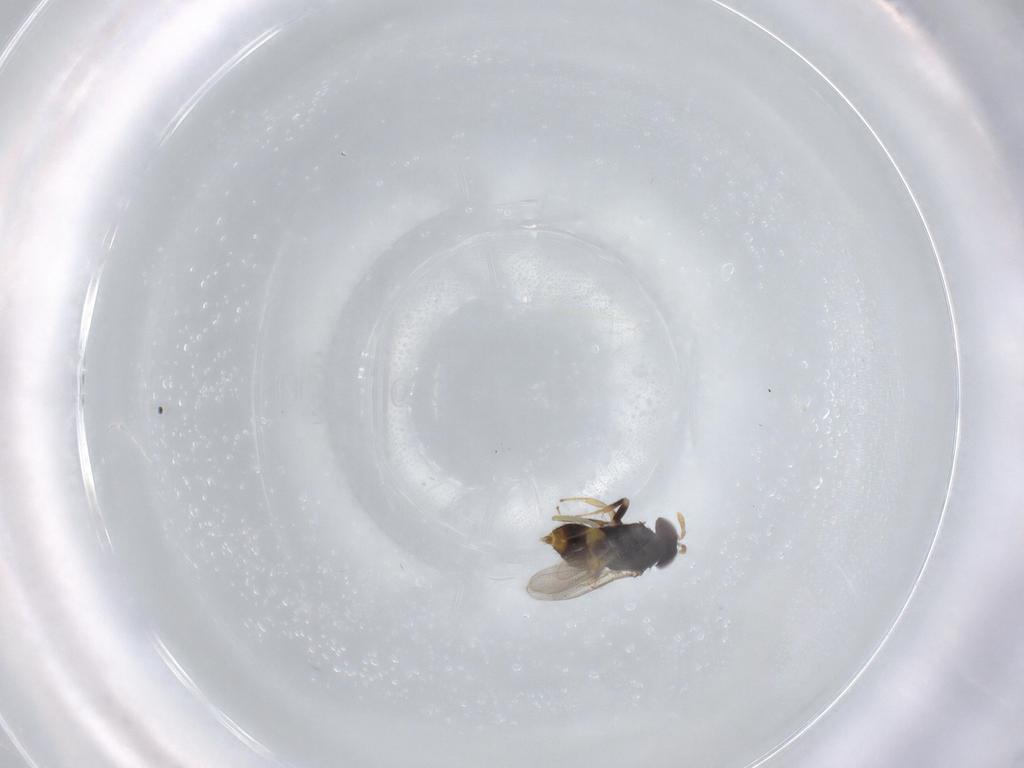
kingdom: Animalia
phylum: Arthropoda
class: Insecta
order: Hymenoptera
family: Aphelinidae
